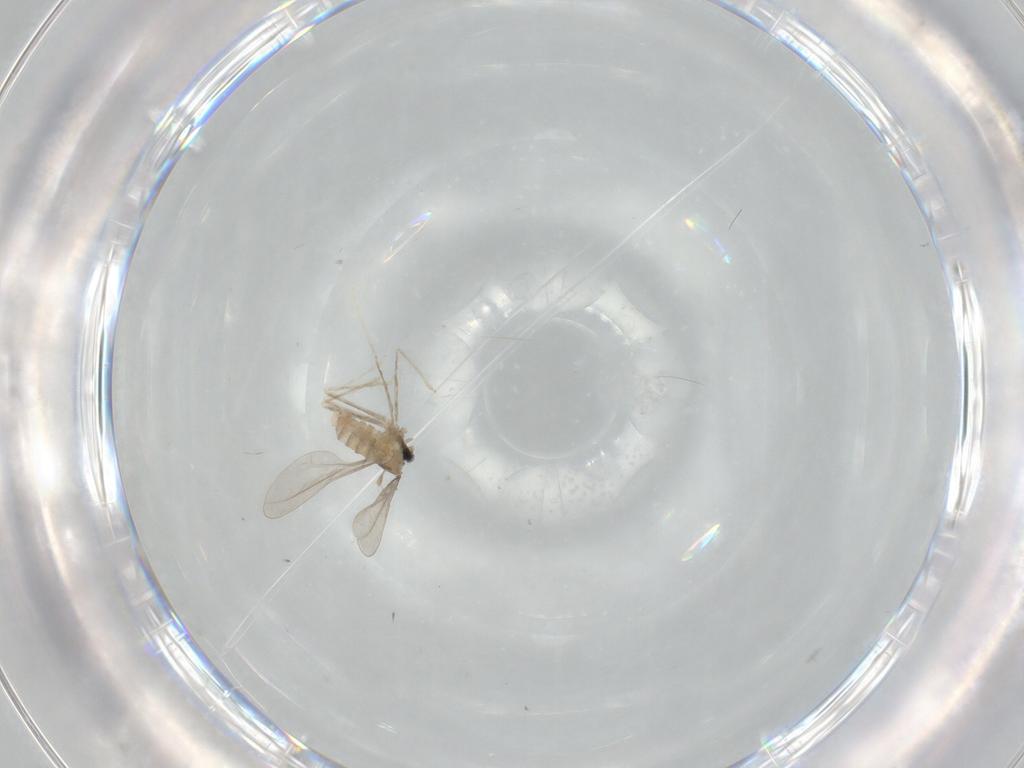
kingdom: Animalia
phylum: Arthropoda
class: Insecta
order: Diptera
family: Cecidomyiidae
